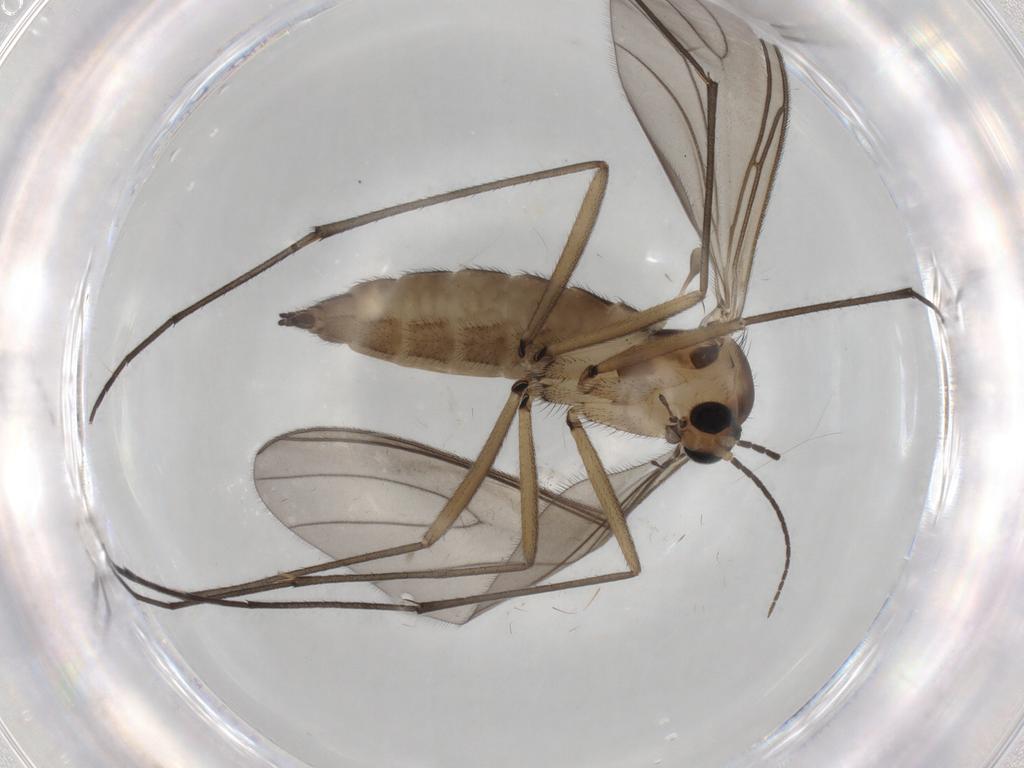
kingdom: Animalia
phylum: Arthropoda
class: Insecta
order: Diptera
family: Sciaridae
